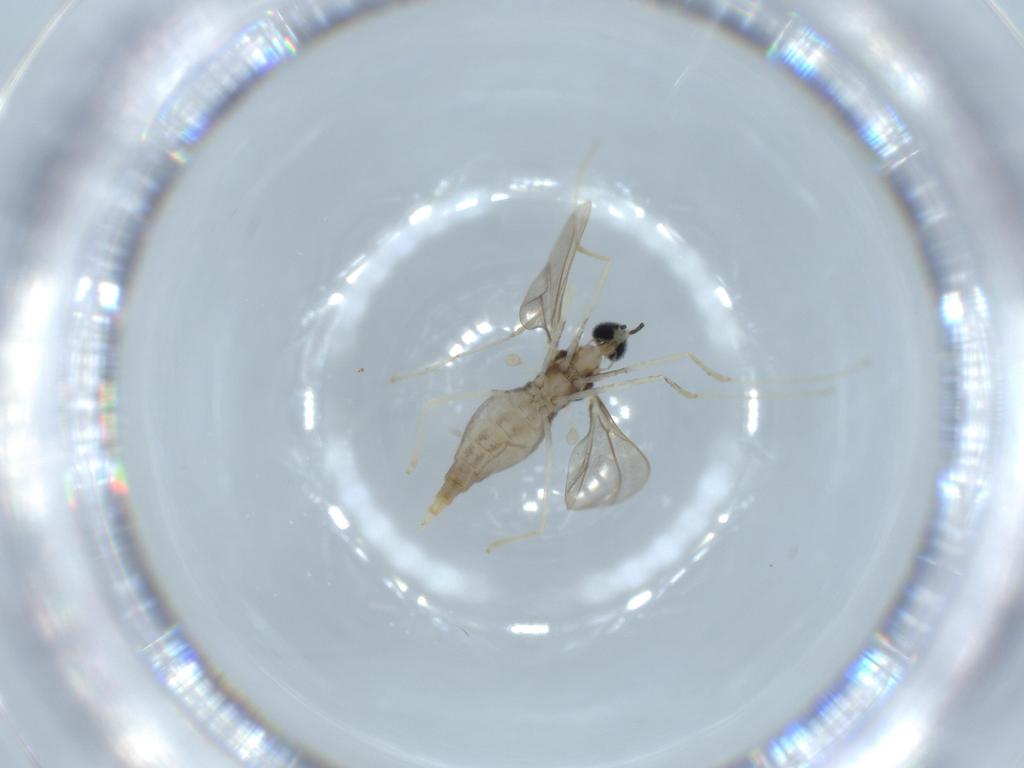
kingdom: Animalia
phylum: Arthropoda
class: Insecta
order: Diptera
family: Cecidomyiidae
